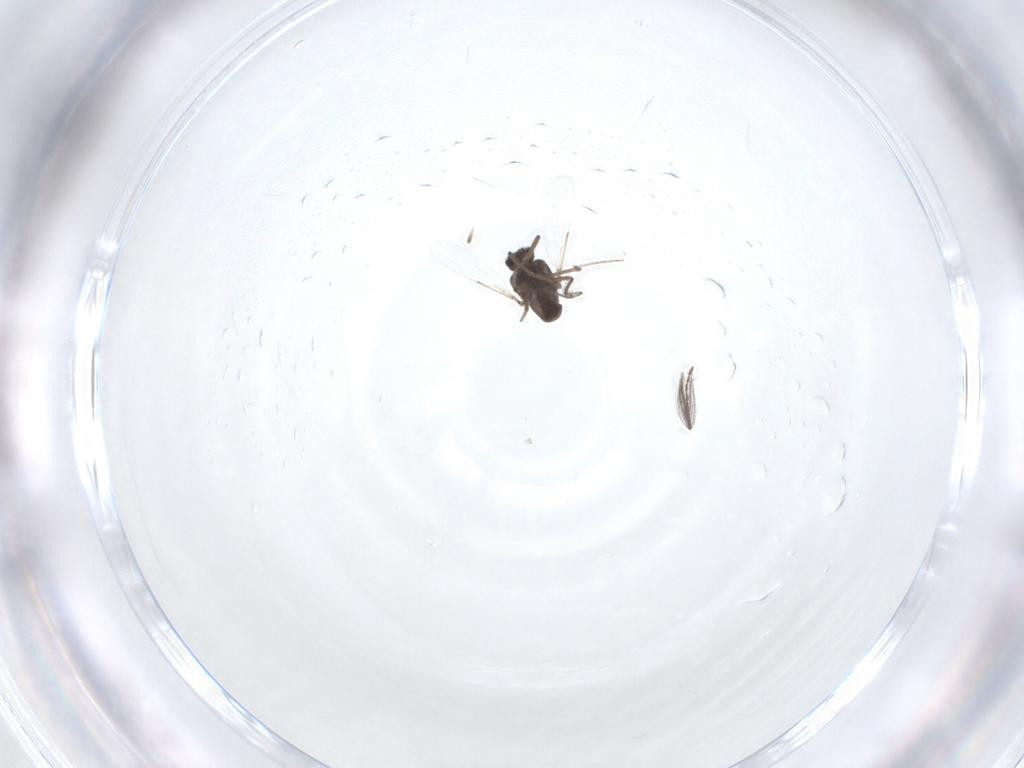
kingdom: Animalia
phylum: Arthropoda
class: Insecta
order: Diptera
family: Ceratopogonidae
